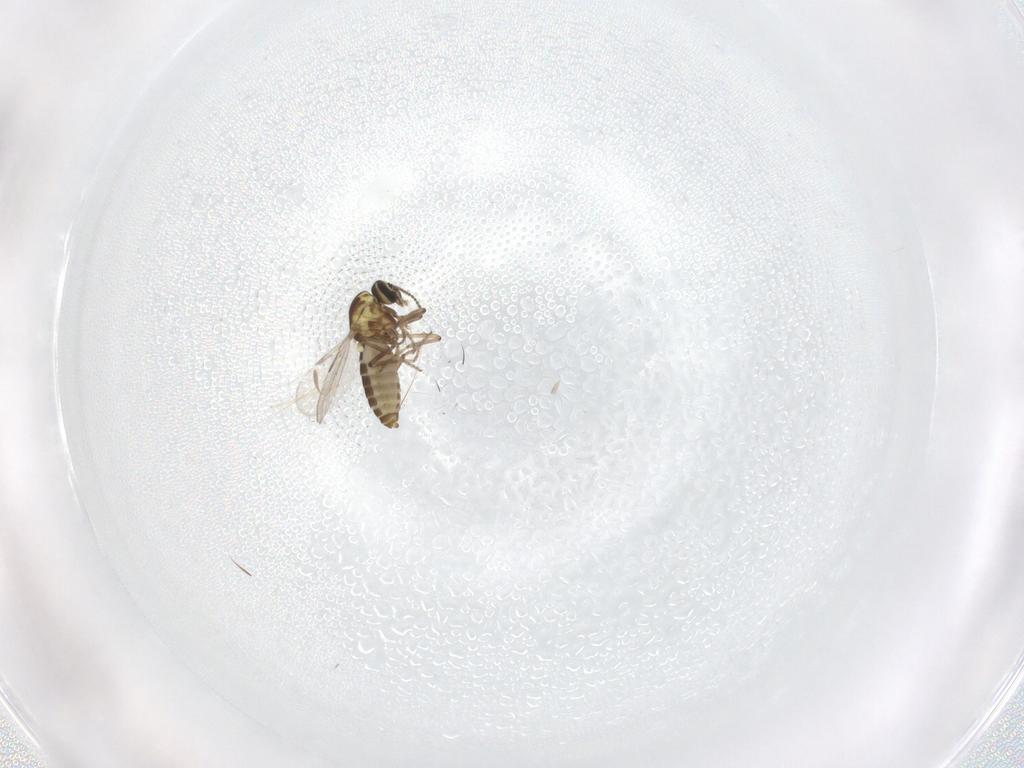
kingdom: Animalia
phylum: Arthropoda
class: Insecta
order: Diptera
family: Ceratopogonidae
